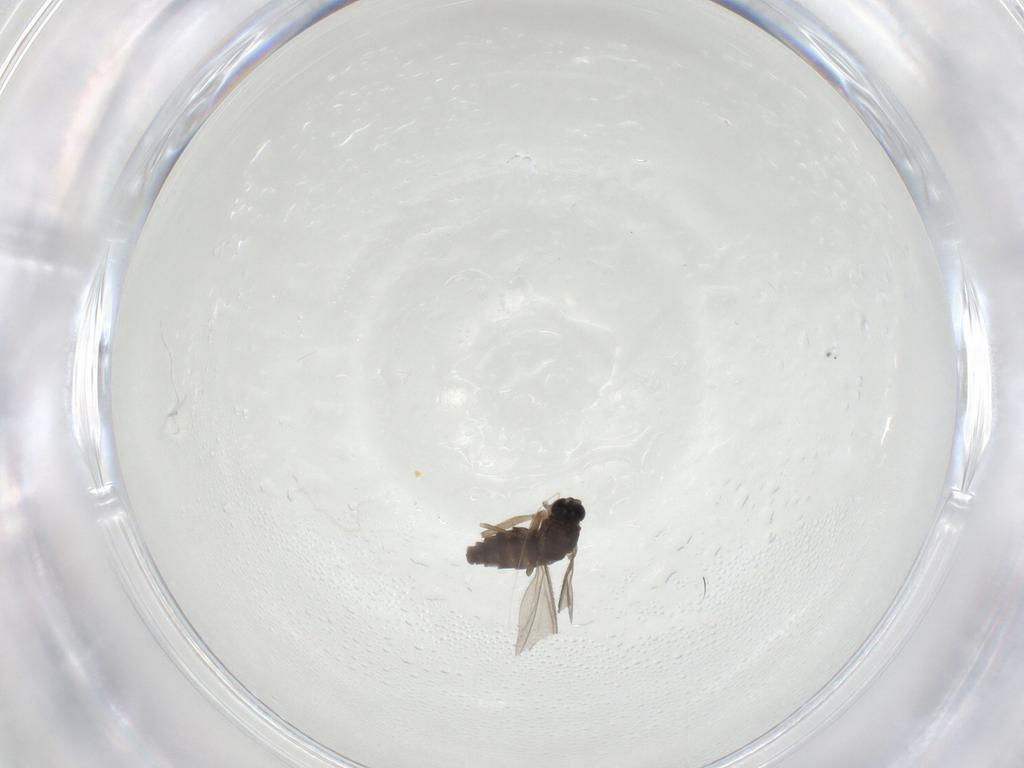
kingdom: Animalia
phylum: Arthropoda
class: Insecta
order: Diptera
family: Sciaridae
